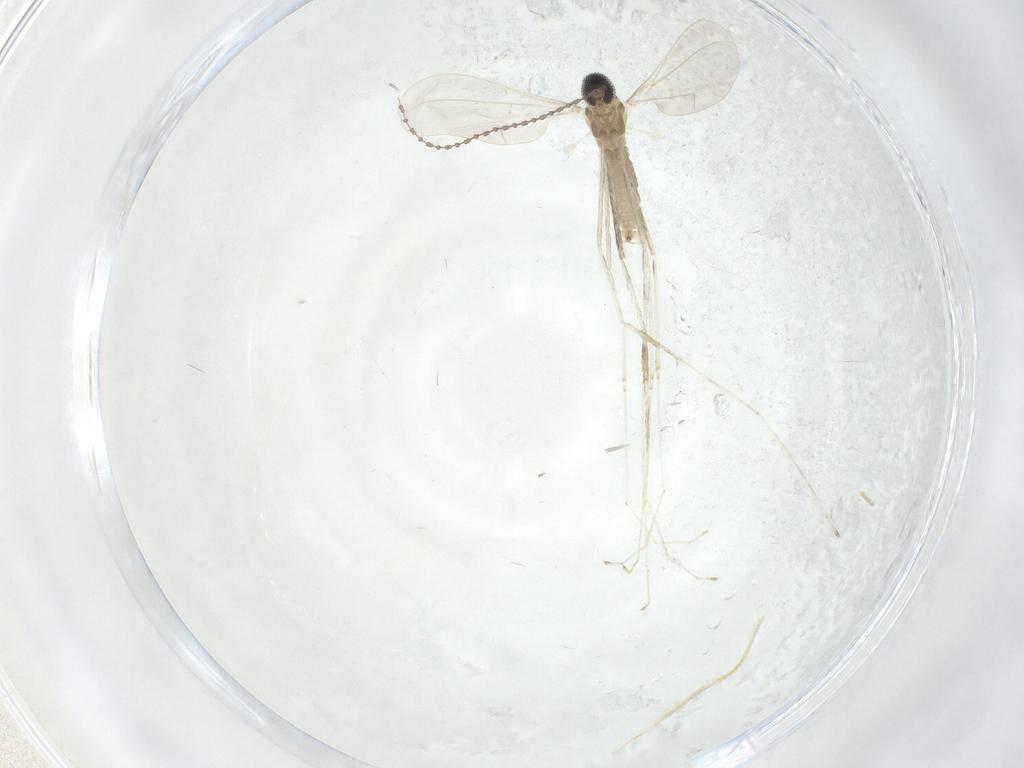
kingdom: Animalia
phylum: Arthropoda
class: Insecta
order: Diptera
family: Cecidomyiidae
